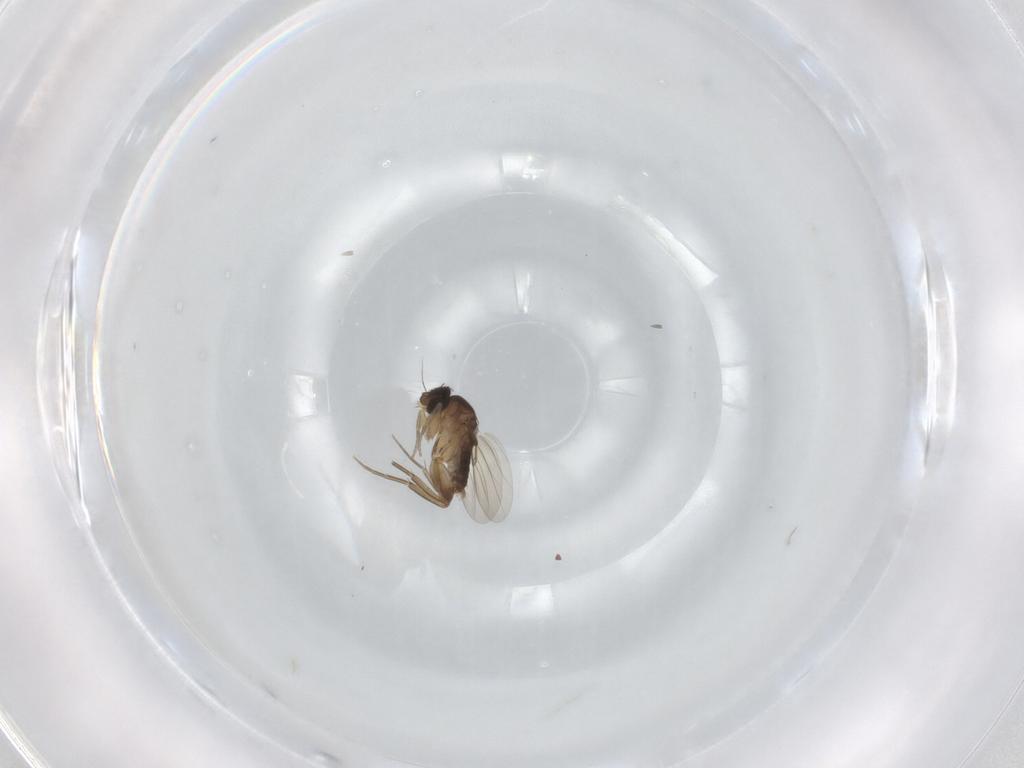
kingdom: Animalia
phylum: Arthropoda
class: Insecta
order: Diptera
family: Phoridae
